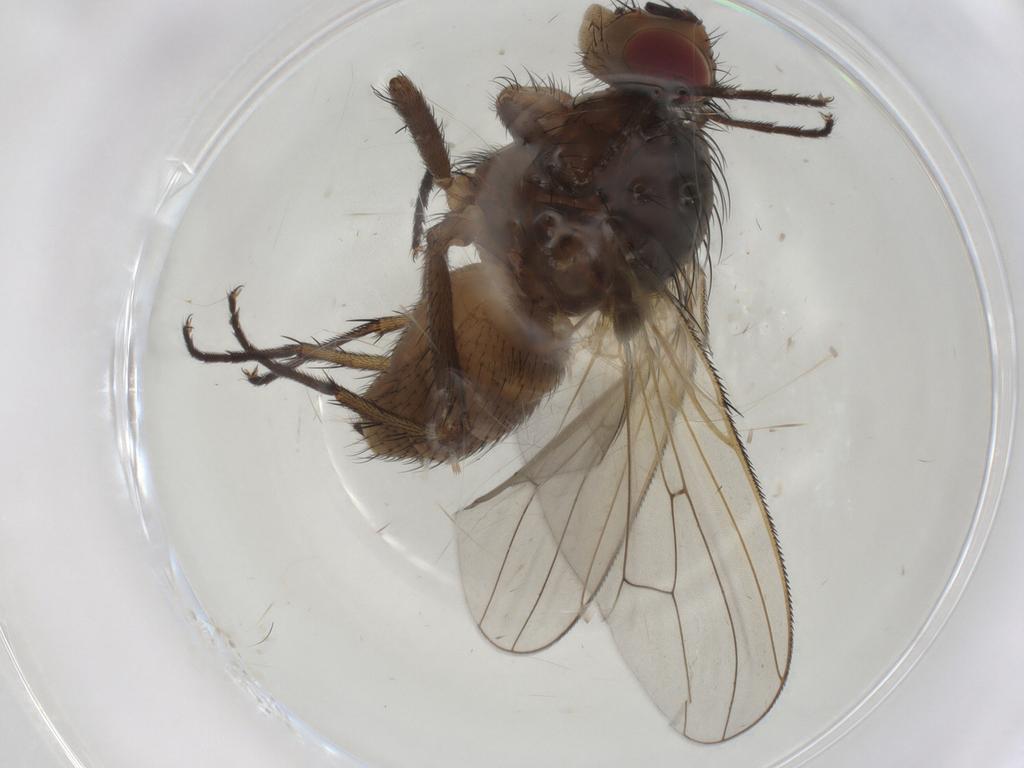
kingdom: Animalia
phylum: Arthropoda
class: Insecta
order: Diptera
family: Anthomyiidae
